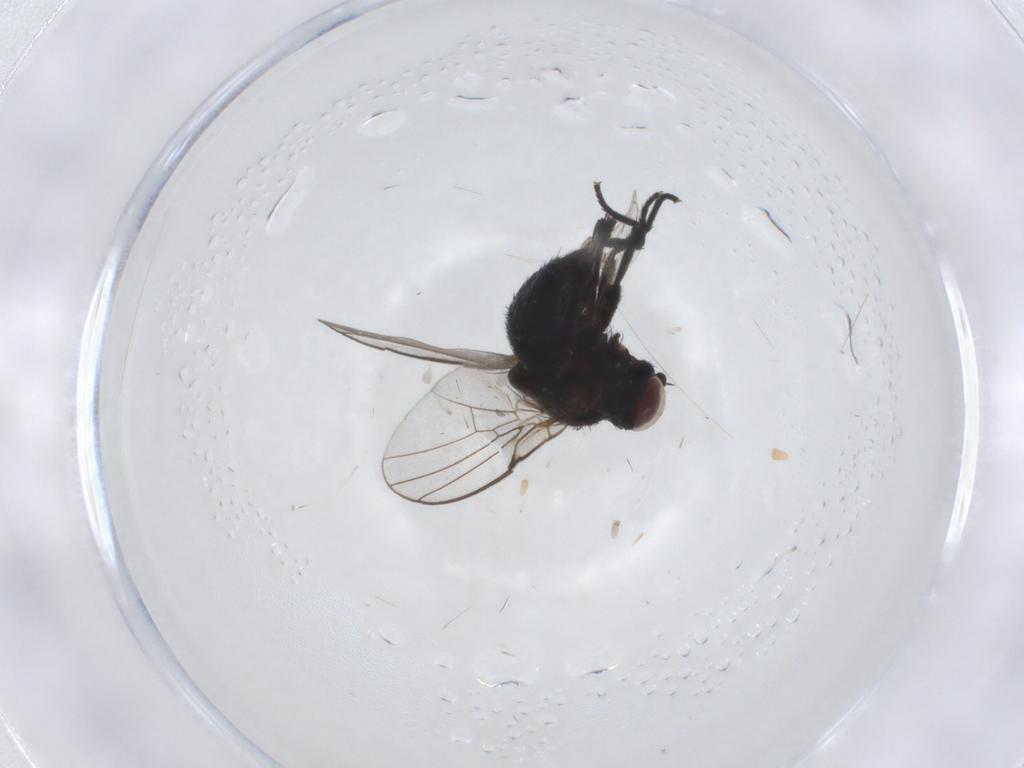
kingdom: Animalia
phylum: Arthropoda
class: Insecta
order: Diptera
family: Agromyzidae
